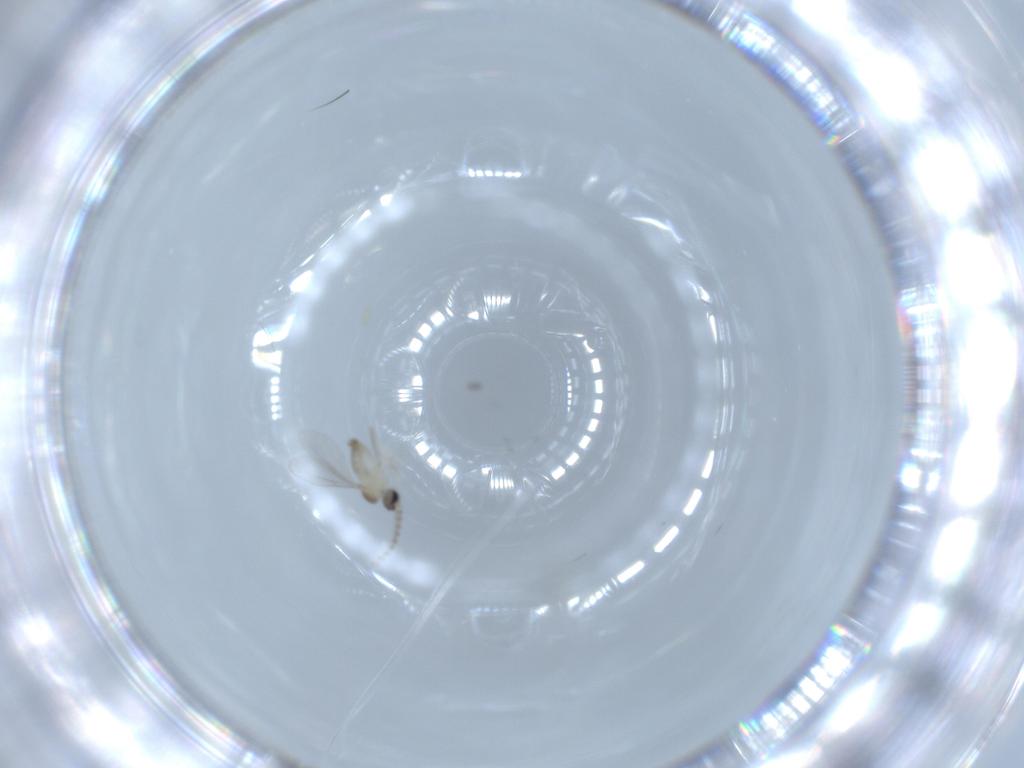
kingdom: Animalia
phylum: Arthropoda
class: Insecta
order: Diptera
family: Cecidomyiidae
